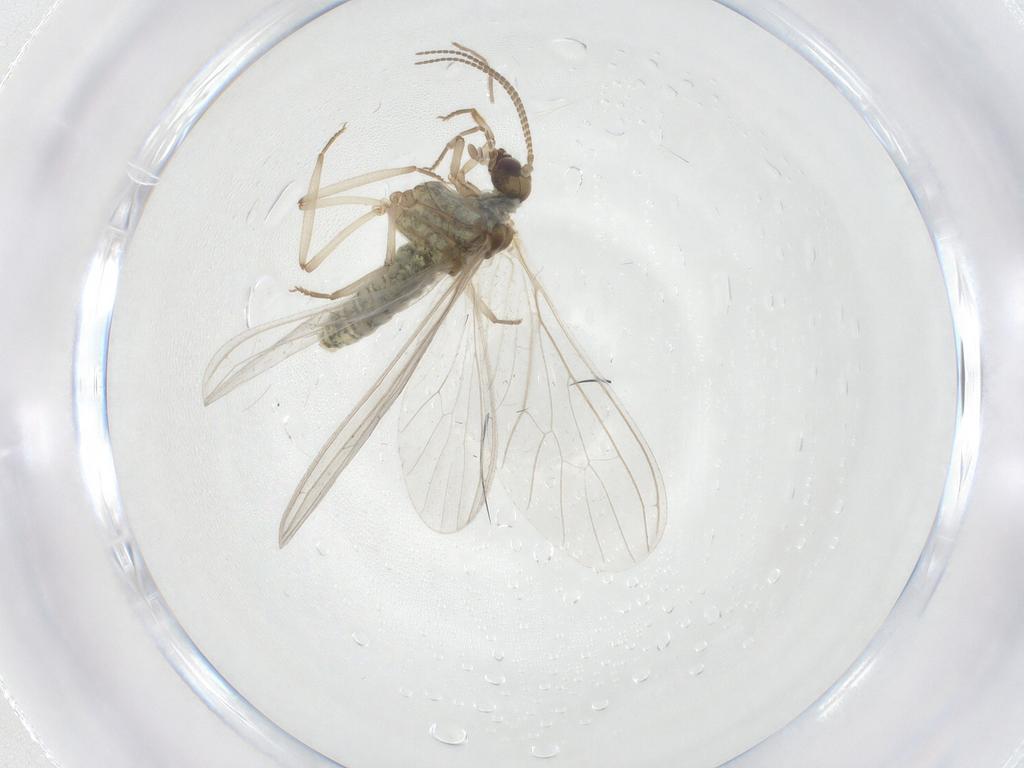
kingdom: Animalia
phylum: Arthropoda
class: Insecta
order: Neuroptera
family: Coniopterygidae
